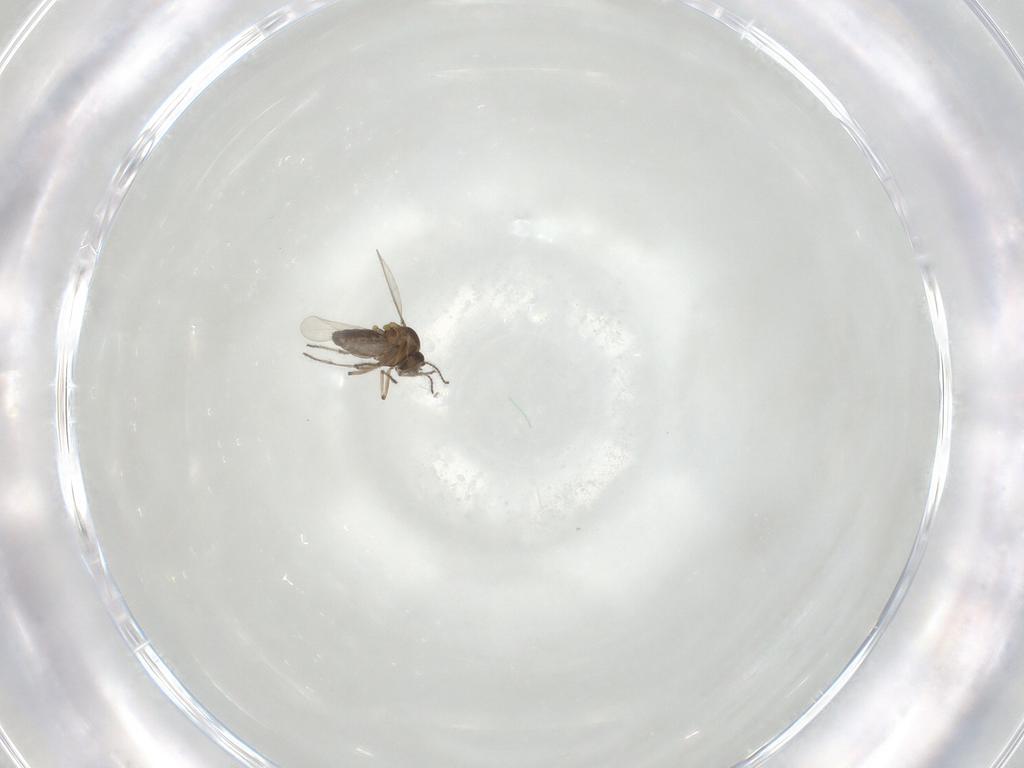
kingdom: Animalia
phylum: Arthropoda
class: Insecta
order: Diptera
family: Ceratopogonidae
